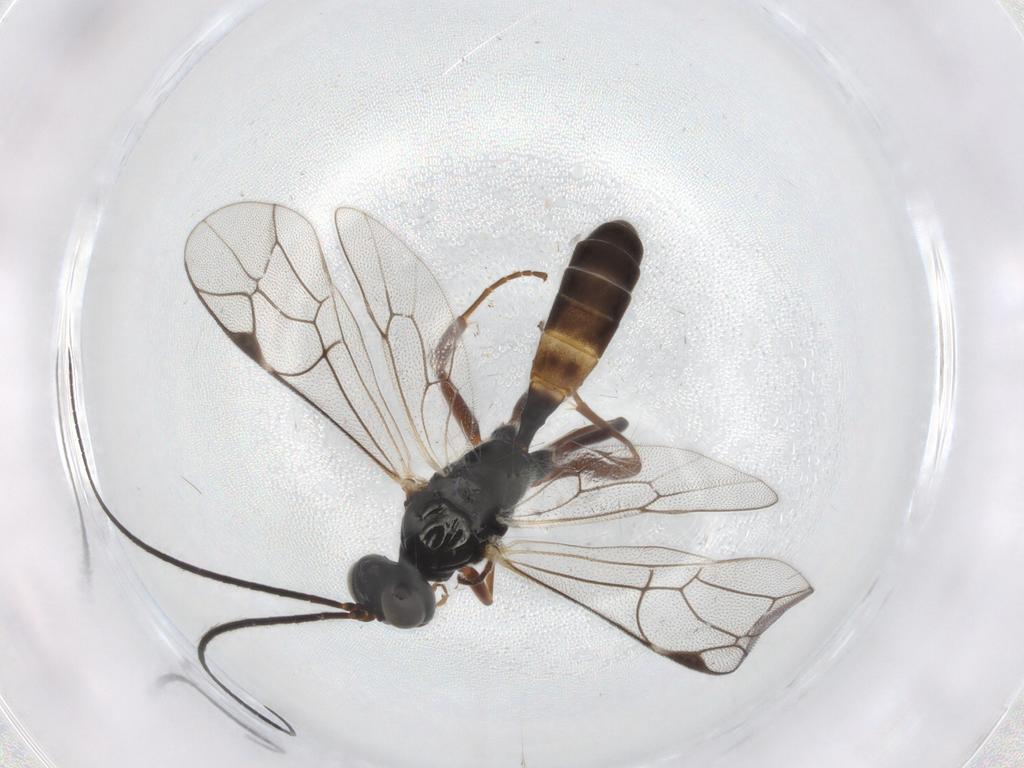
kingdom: Animalia
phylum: Arthropoda
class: Insecta
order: Hymenoptera
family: Ichneumonidae
